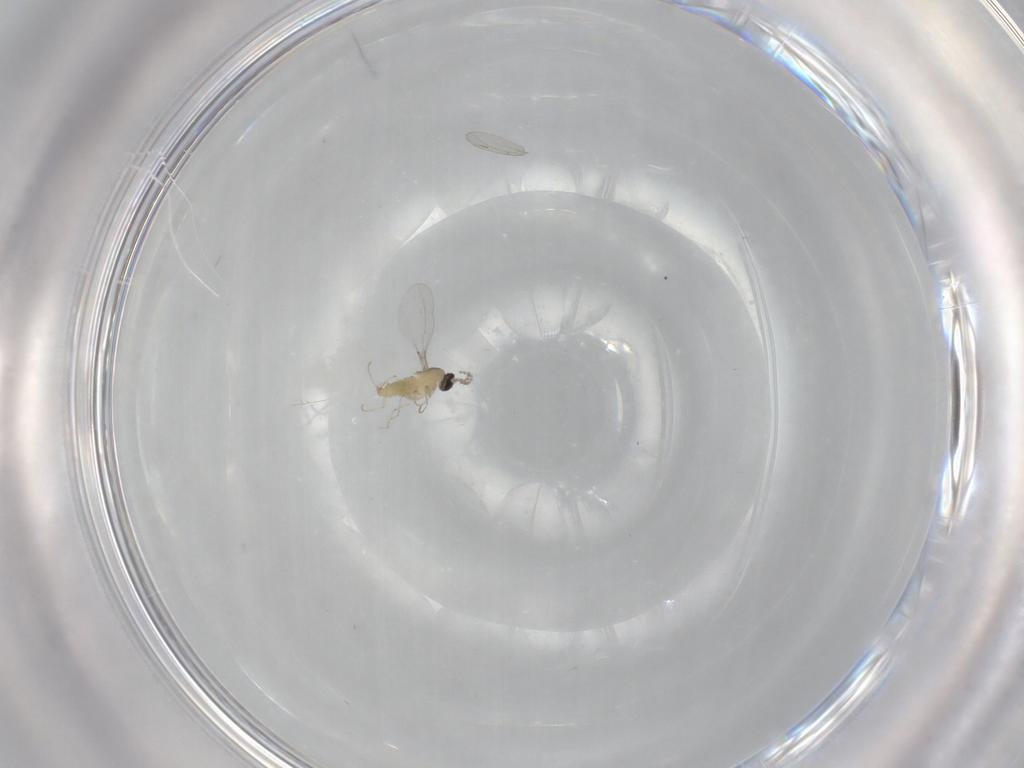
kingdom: Animalia
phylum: Arthropoda
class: Insecta
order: Diptera
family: Cecidomyiidae
